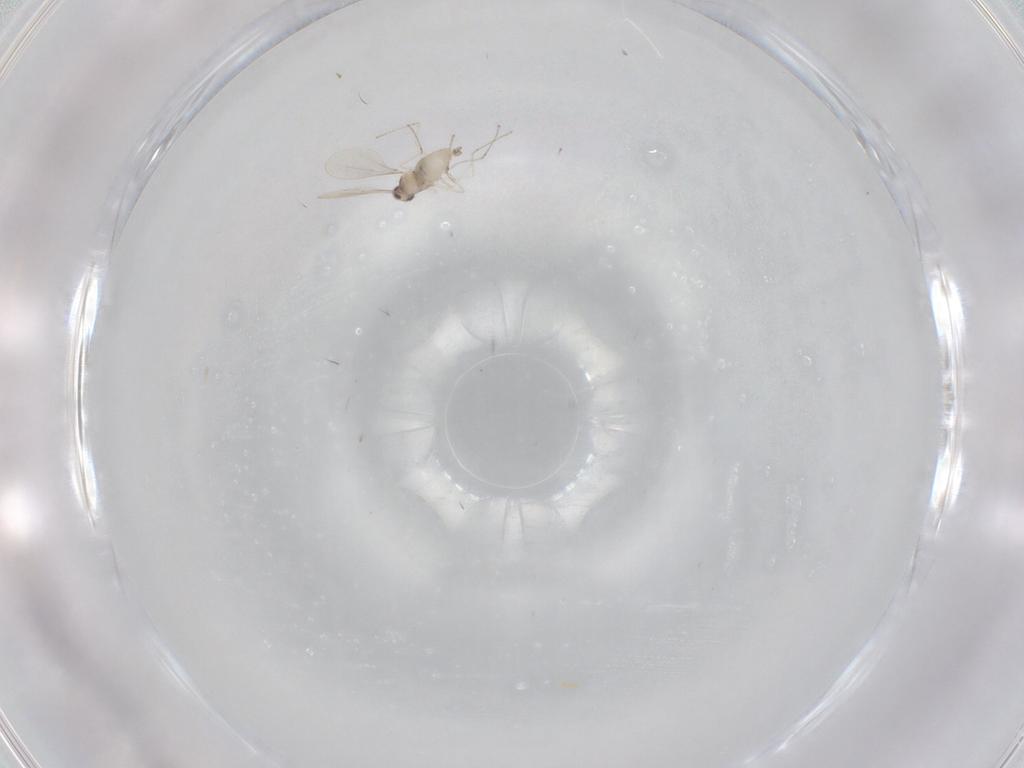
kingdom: Animalia
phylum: Arthropoda
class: Insecta
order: Diptera
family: Cecidomyiidae
